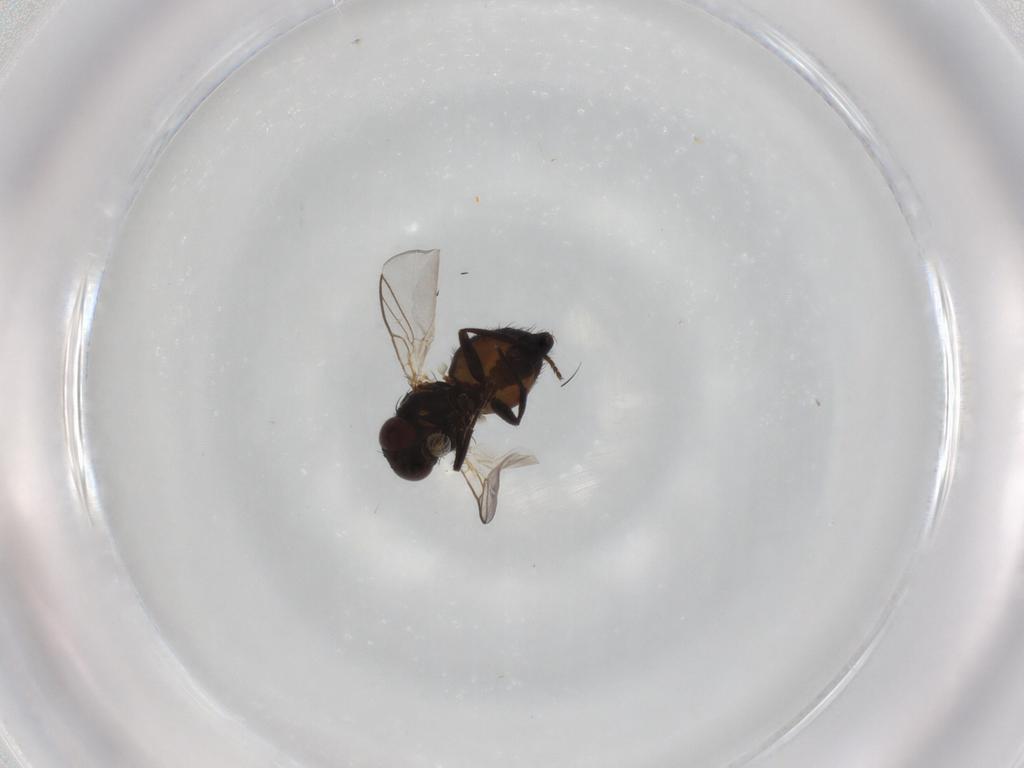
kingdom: Animalia
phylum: Arthropoda
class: Insecta
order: Diptera
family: Agromyzidae
